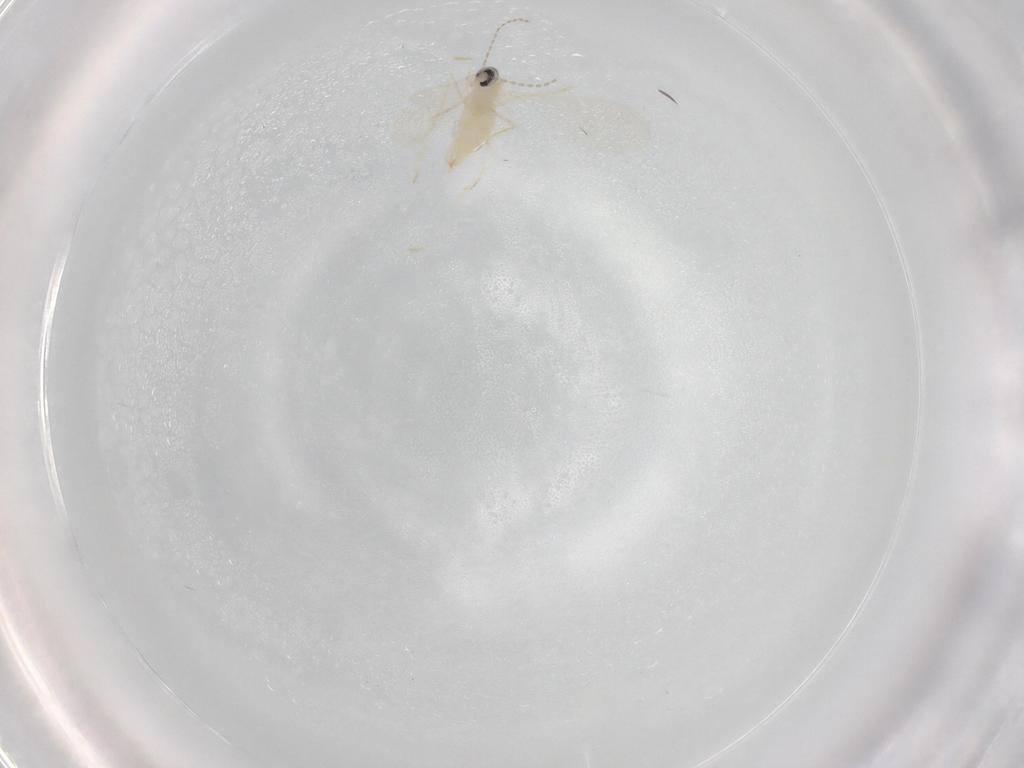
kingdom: Animalia
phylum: Arthropoda
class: Insecta
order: Diptera
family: Cecidomyiidae
